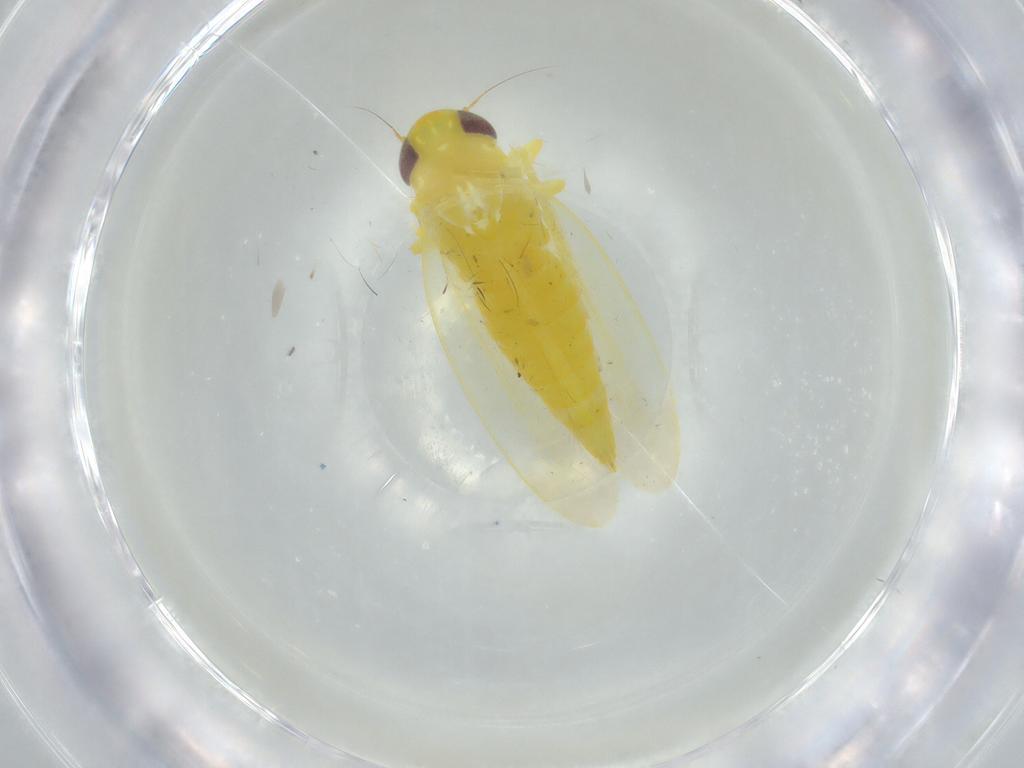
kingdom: Animalia
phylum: Arthropoda
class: Insecta
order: Hemiptera
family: Cicadellidae
